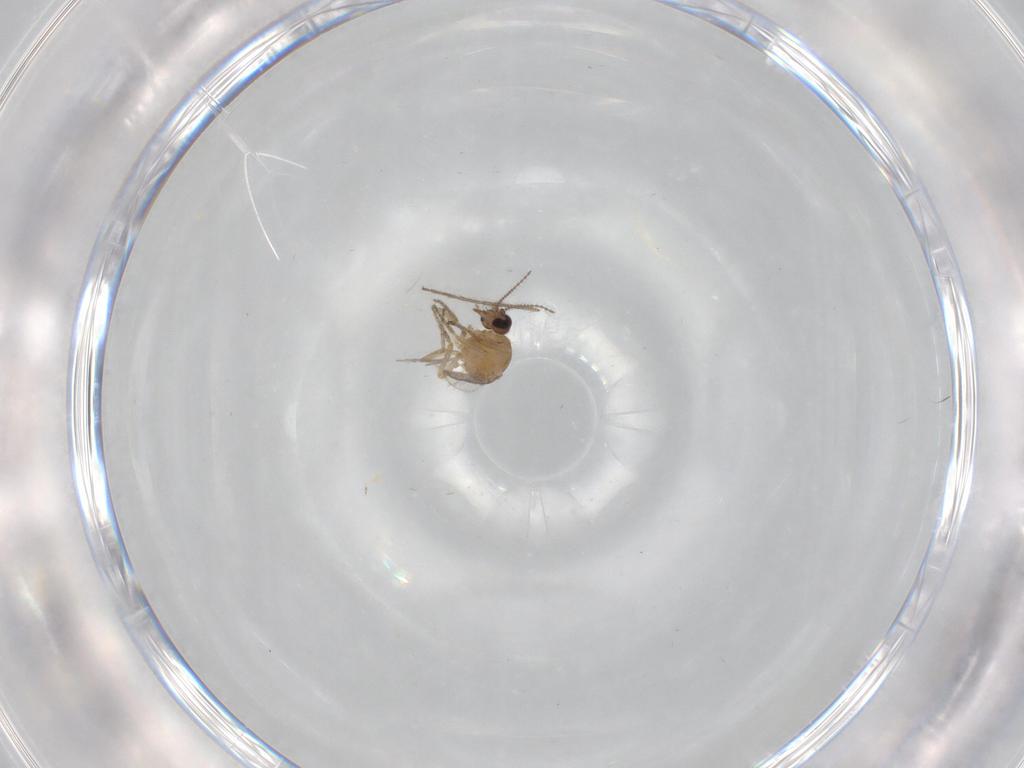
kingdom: Animalia
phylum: Arthropoda
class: Insecta
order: Diptera
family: Ceratopogonidae
